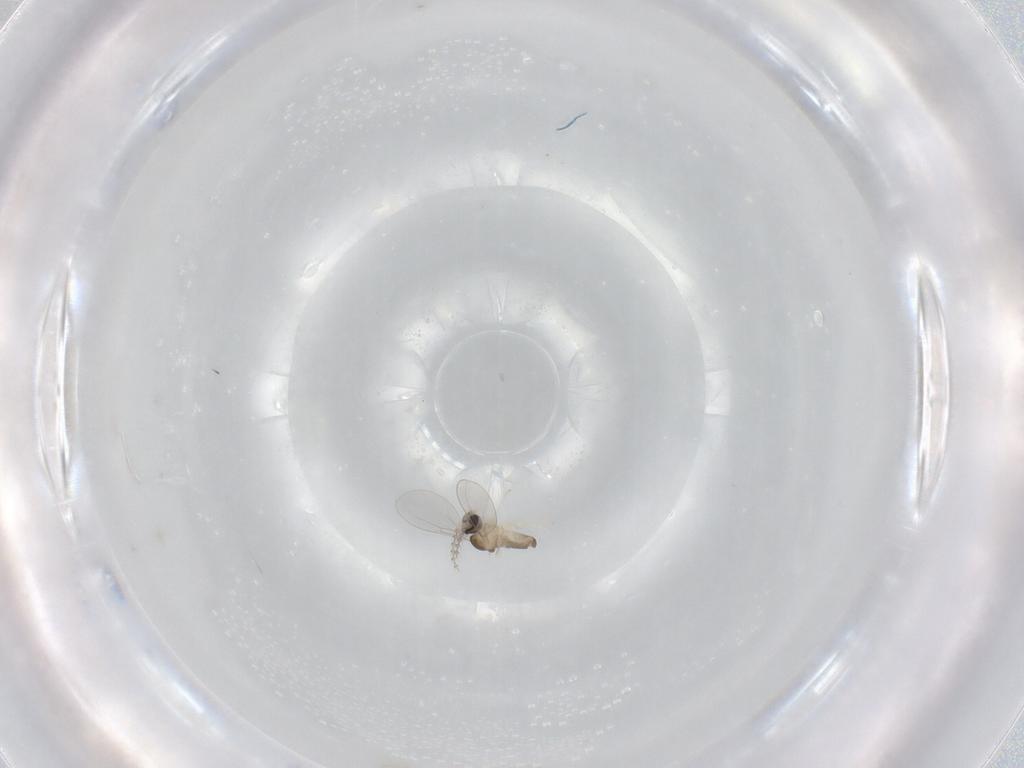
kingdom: Animalia
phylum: Arthropoda
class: Insecta
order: Diptera
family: Cecidomyiidae
